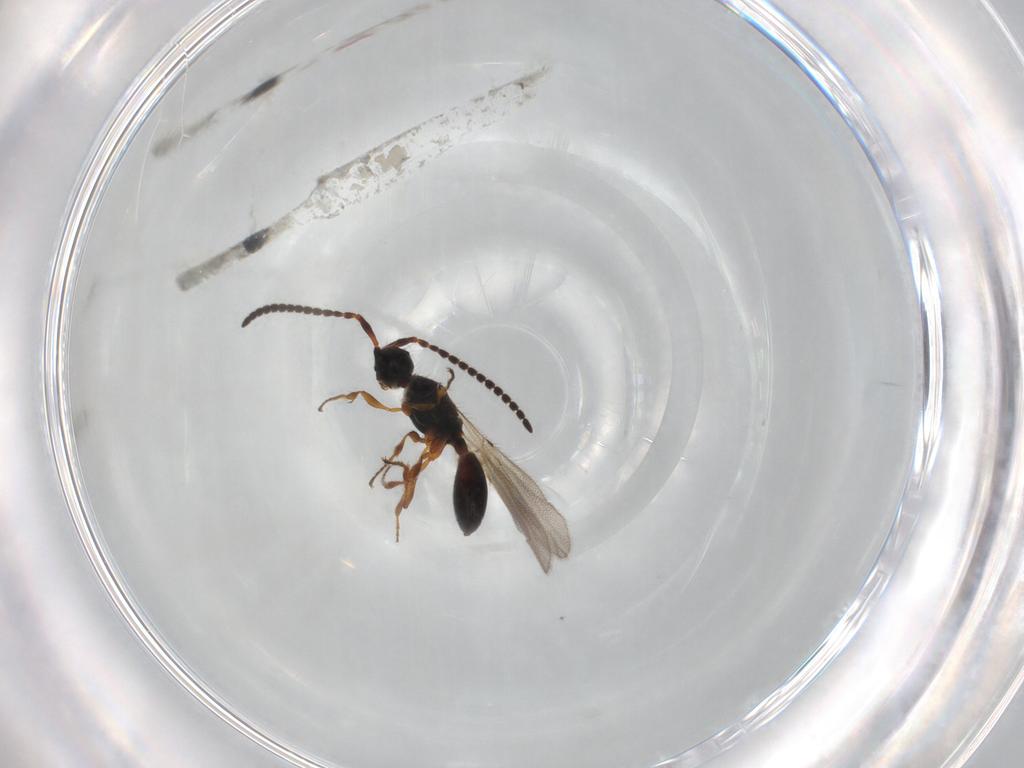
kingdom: Animalia
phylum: Arthropoda
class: Insecta
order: Hymenoptera
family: Diapriidae
